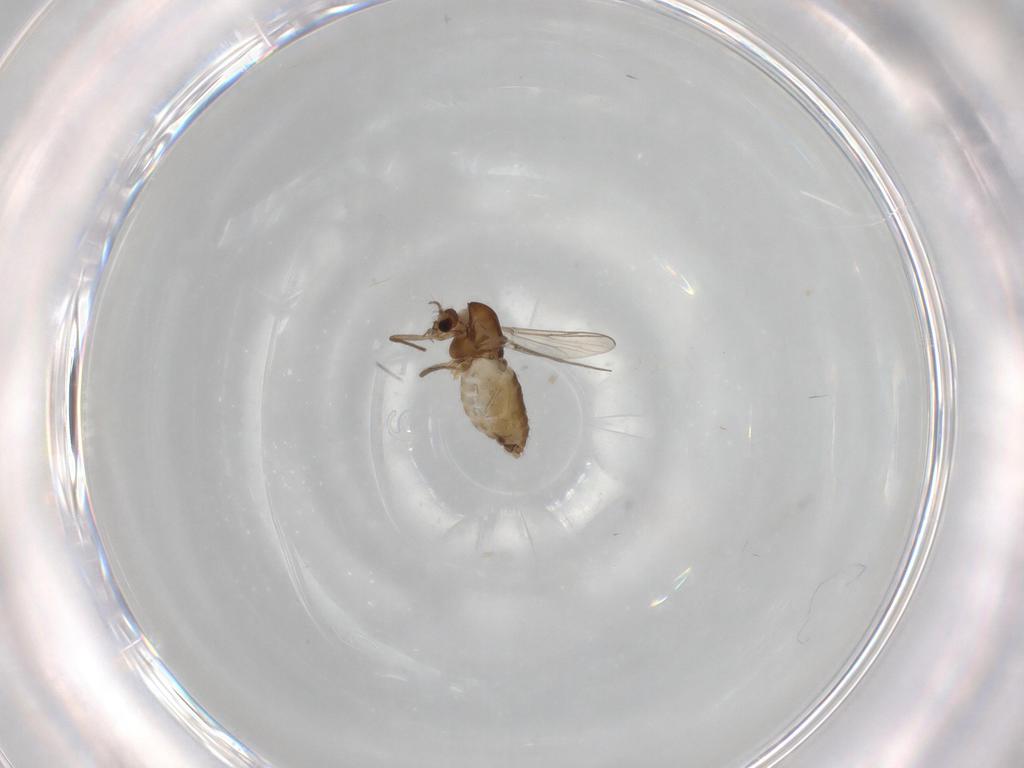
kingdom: Animalia
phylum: Arthropoda
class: Insecta
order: Diptera
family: Chironomidae
